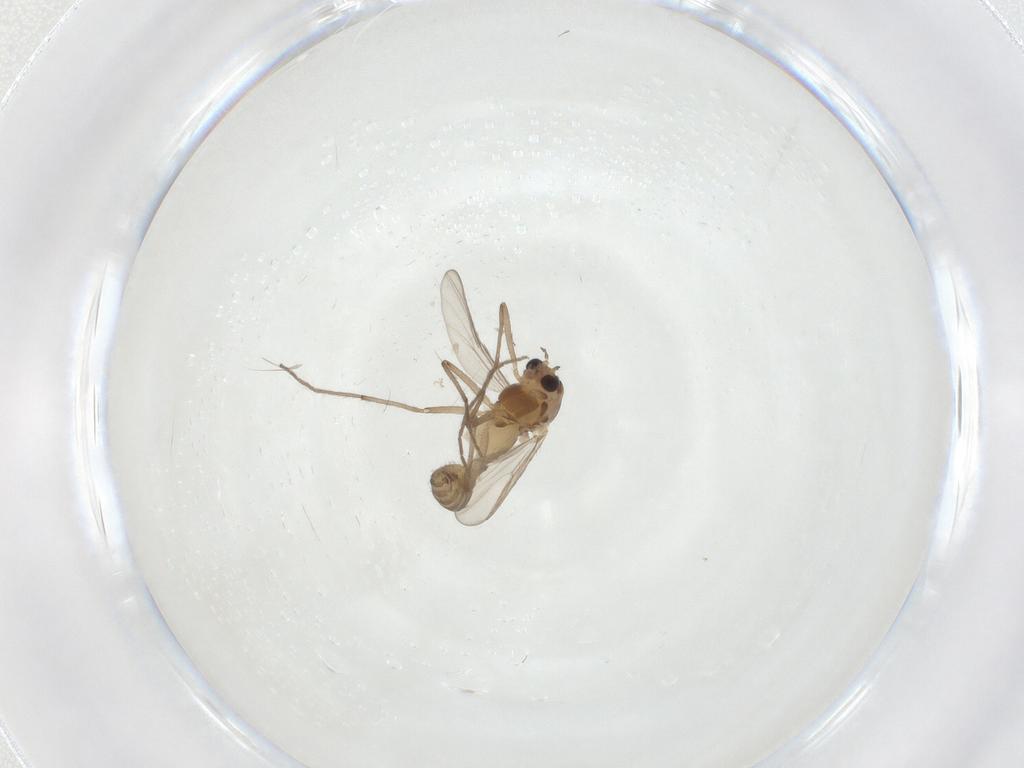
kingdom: Animalia
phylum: Arthropoda
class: Insecta
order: Diptera
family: Chironomidae
